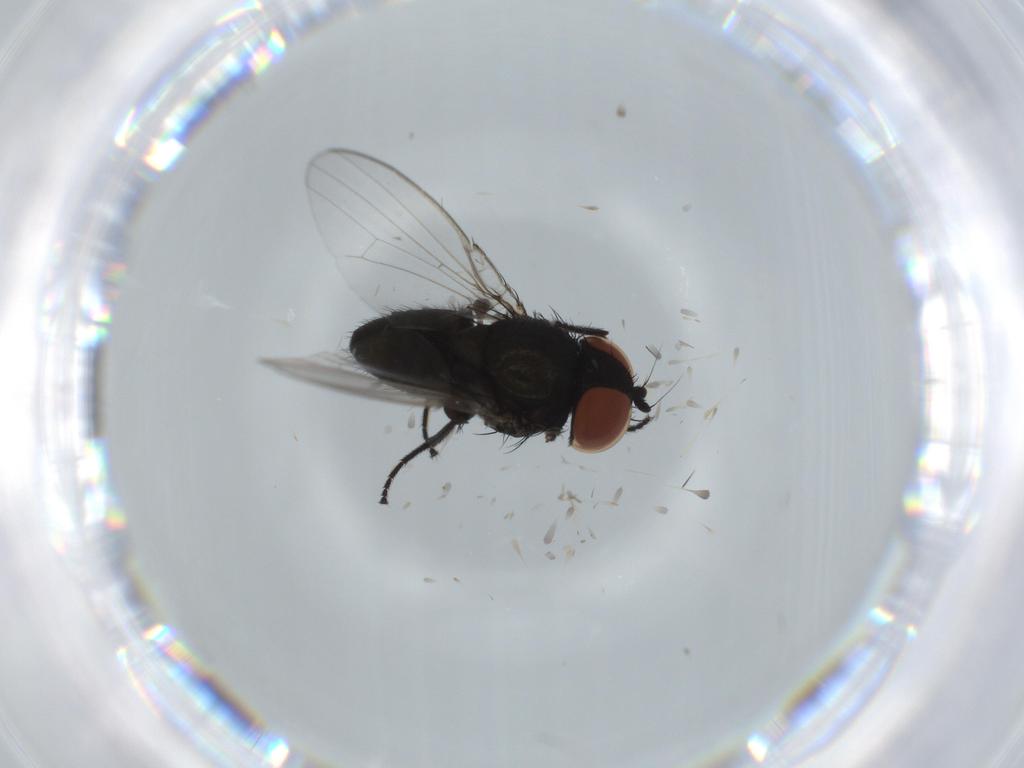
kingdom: Animalia
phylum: Arthropoda
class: Insecta
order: Diptera
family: Milichiidae
